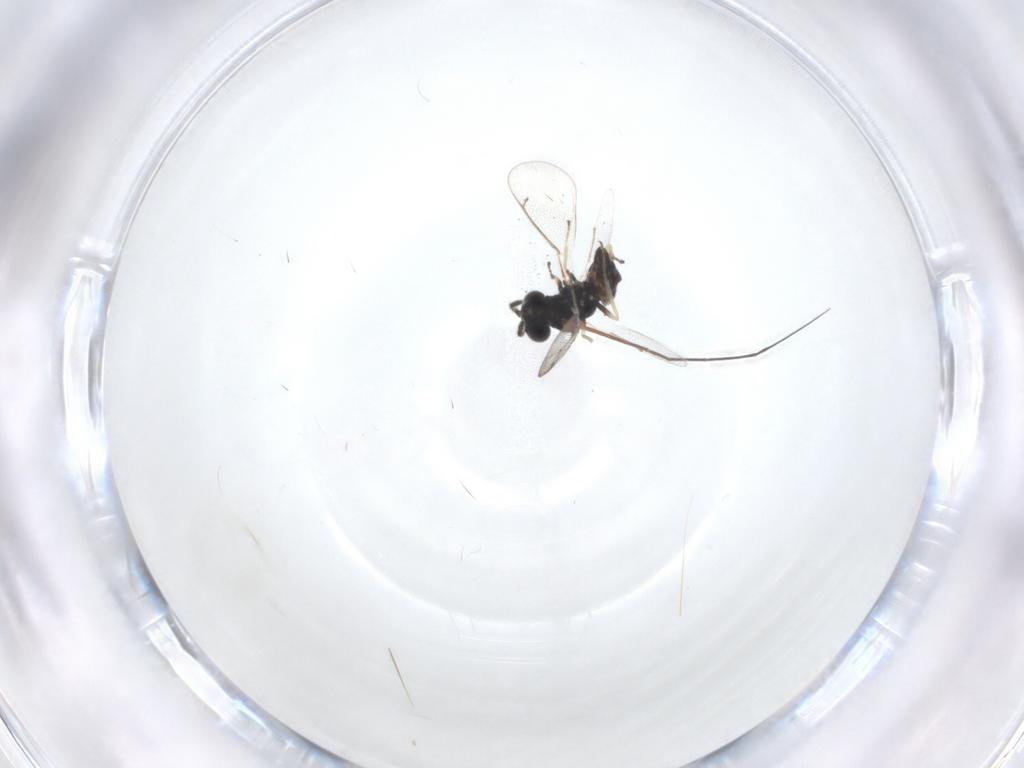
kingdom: Animalia
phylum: Arthropoda
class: Insecta
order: Hymenoptera
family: Eulophidae
